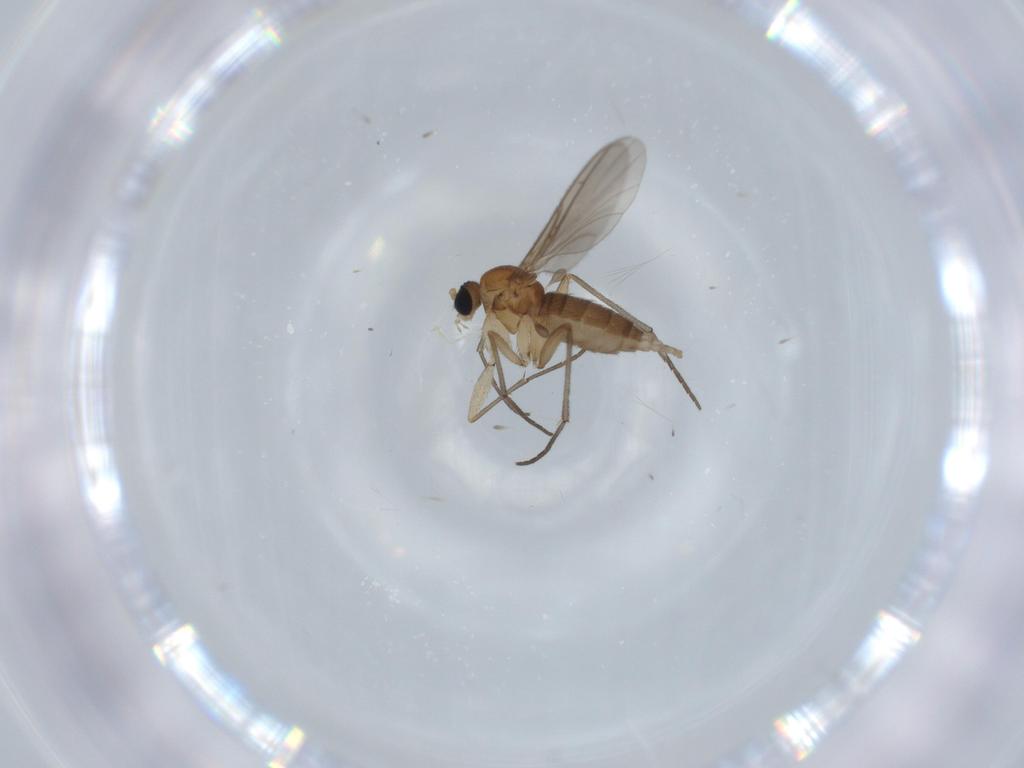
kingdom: Animalia
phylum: Arthropoda
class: Insecta
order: Diptera
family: Sciaridae
